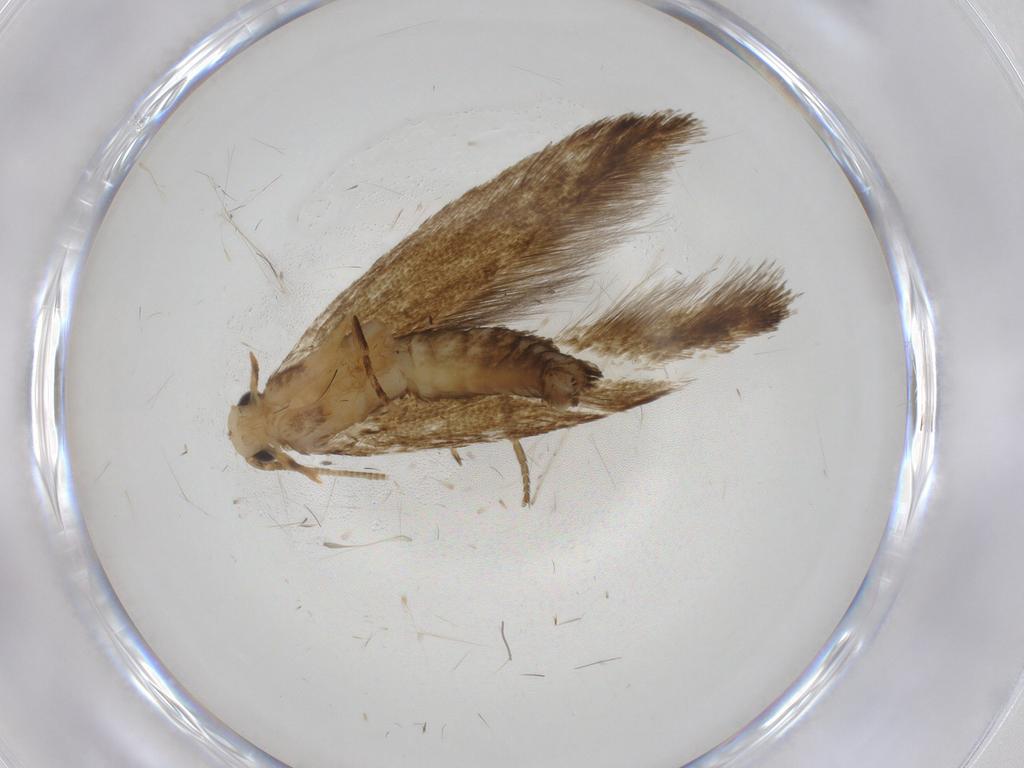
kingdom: Animalia
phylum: Arthropoda
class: Insecta
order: Lepidoptera
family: Tineidae
